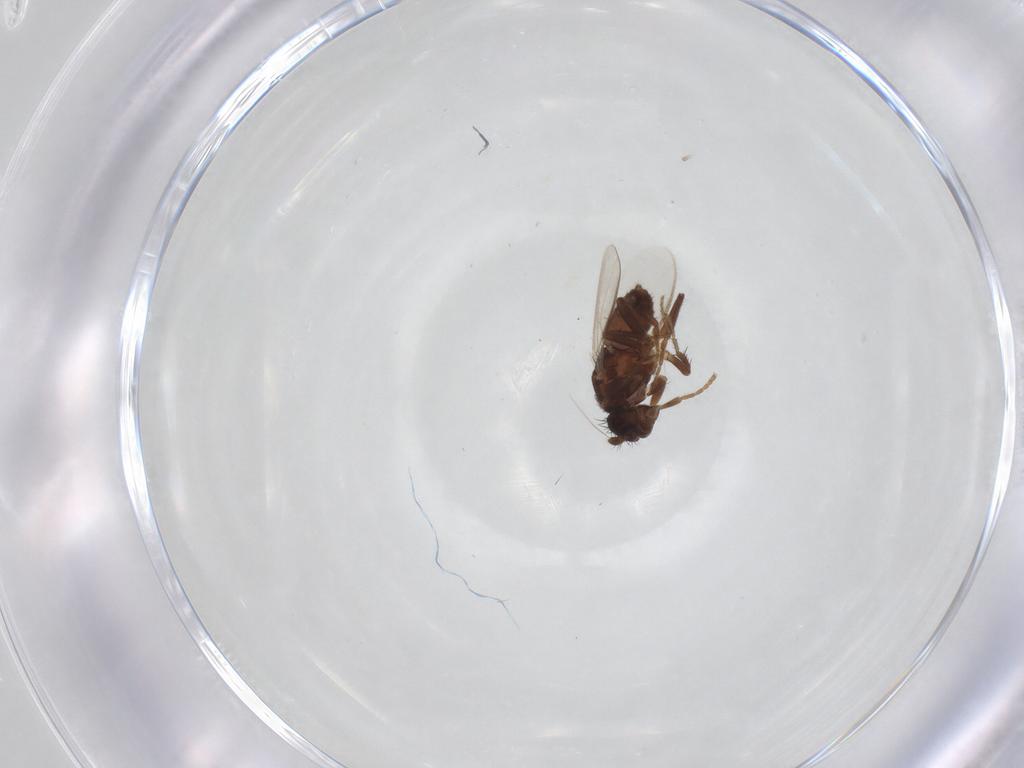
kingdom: Animalia
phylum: Arthropoda
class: Insecta
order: Diptera
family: Sphaeroceridae
